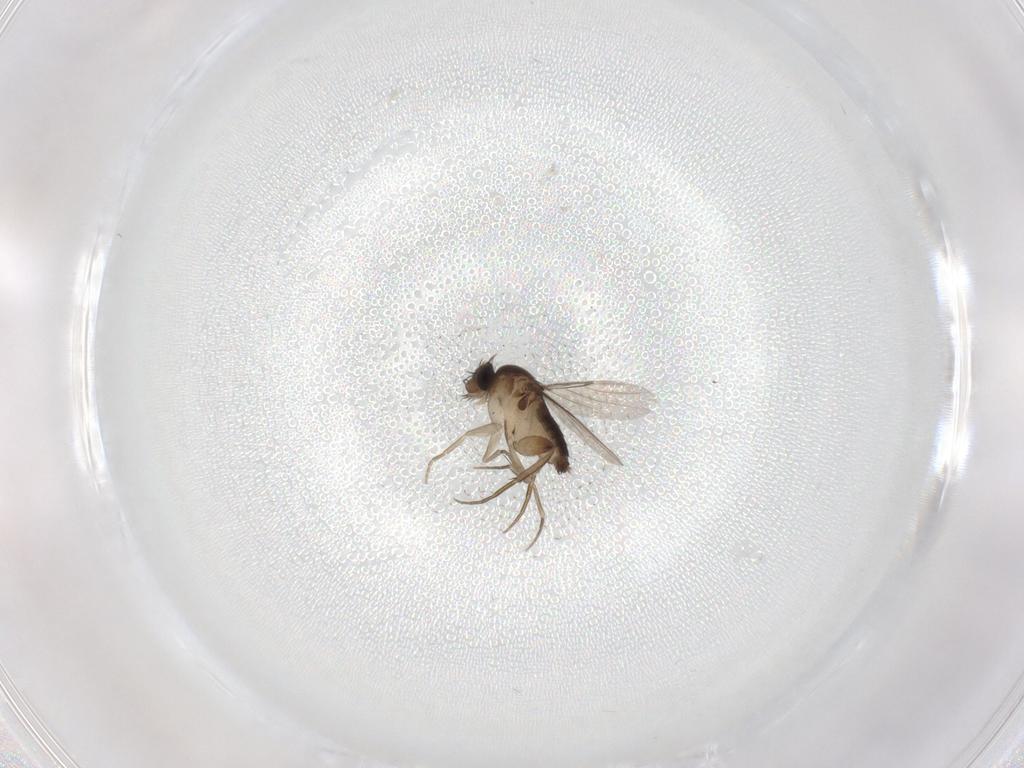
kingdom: Animalia
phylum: Arthropoda
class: Insecta
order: Diptera
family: Phoridae
